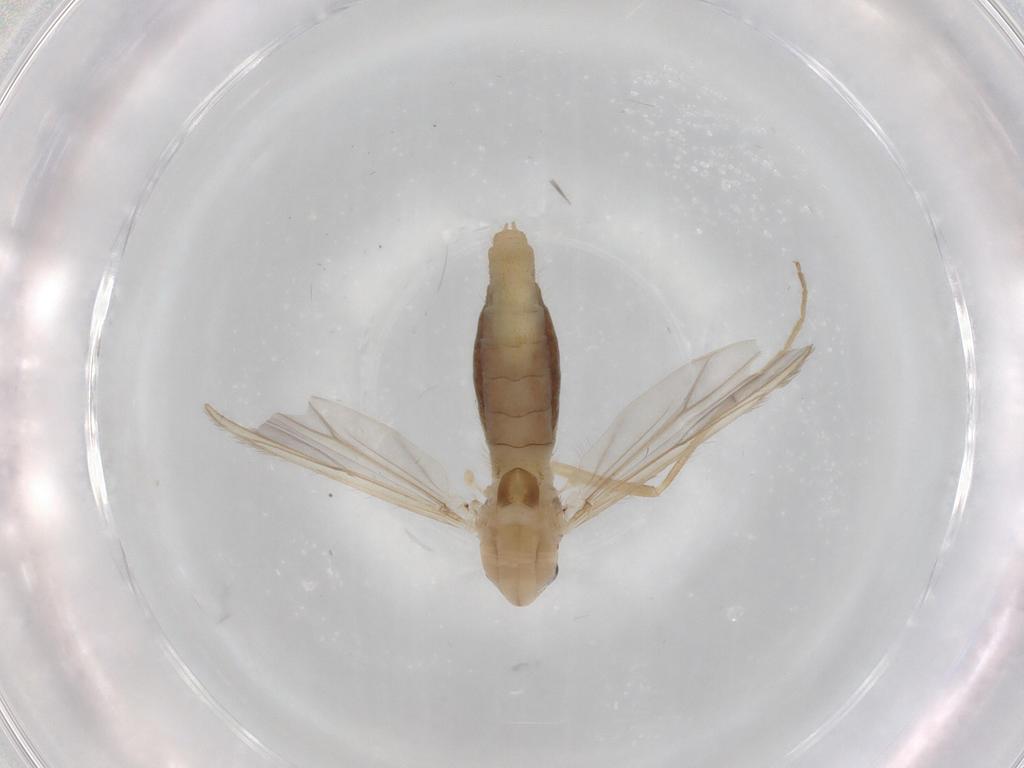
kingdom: Animalia
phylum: Arthropoda
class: Insecta
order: Diptera
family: Chironomidae
